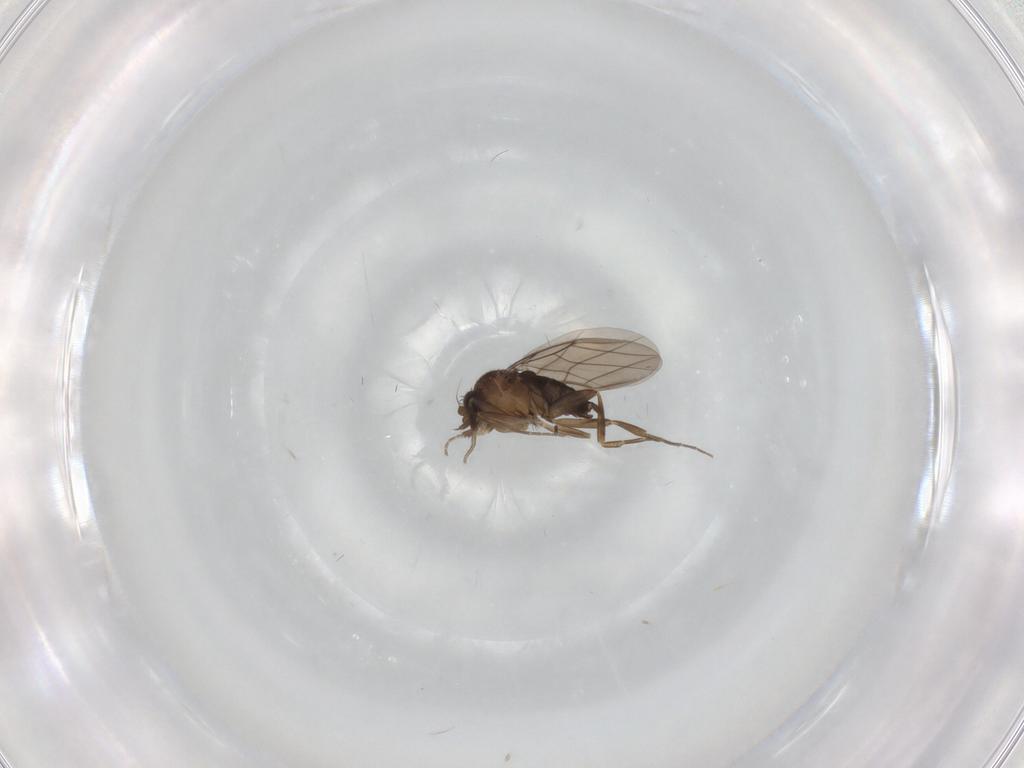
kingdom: Animalia
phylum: Arthropoda
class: Insecta
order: Diptera
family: Phoridae
